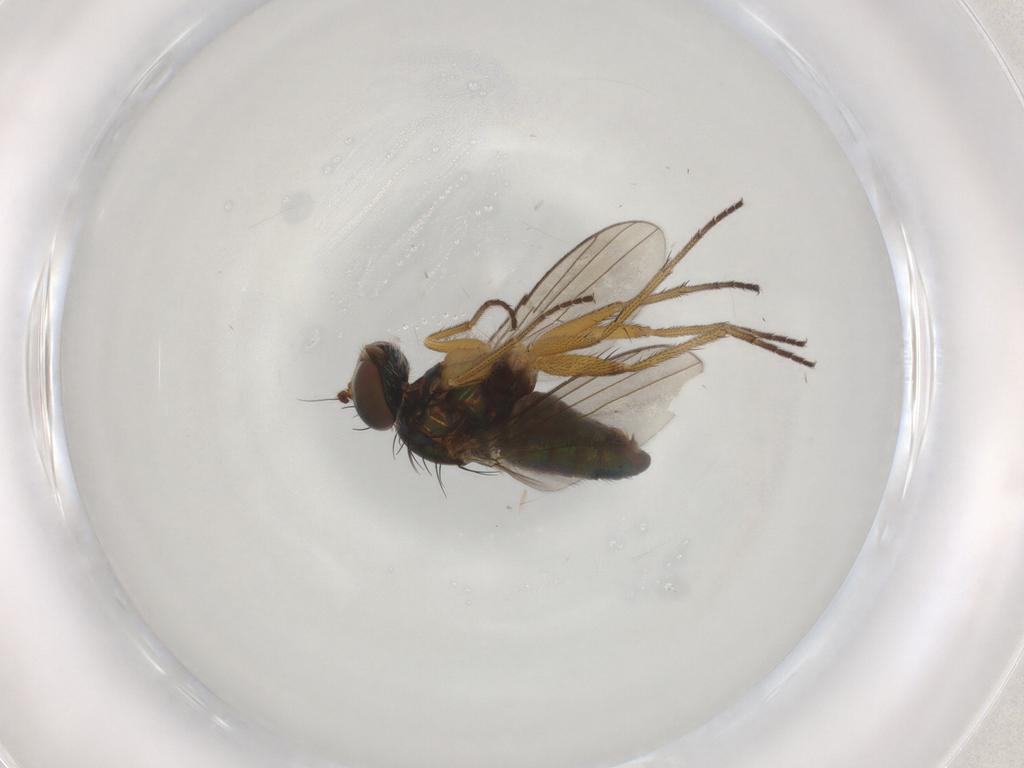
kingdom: Animalia
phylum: Arthropoda
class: Insecta
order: Diptera
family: Dolichopodidae
